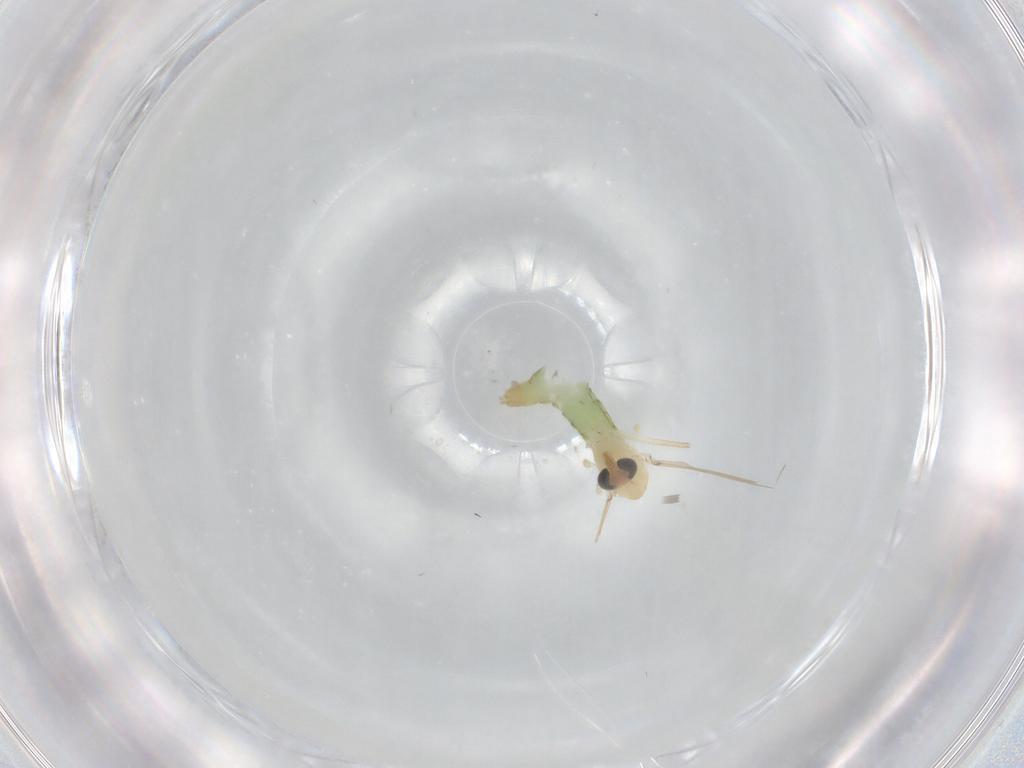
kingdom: Animalia
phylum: Arthropoda
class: Insecta
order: Diptera
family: Chironomidae
